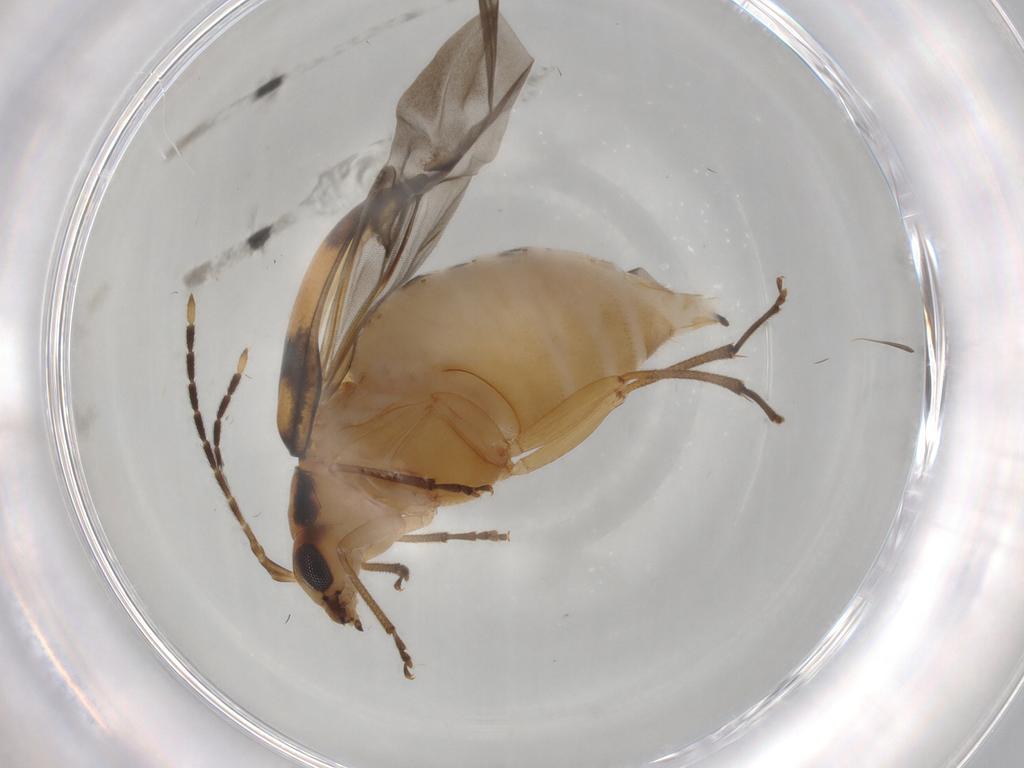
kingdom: Animalia
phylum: Arthropoda
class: Insecta
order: Coleoptera
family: Chrysomelidae
